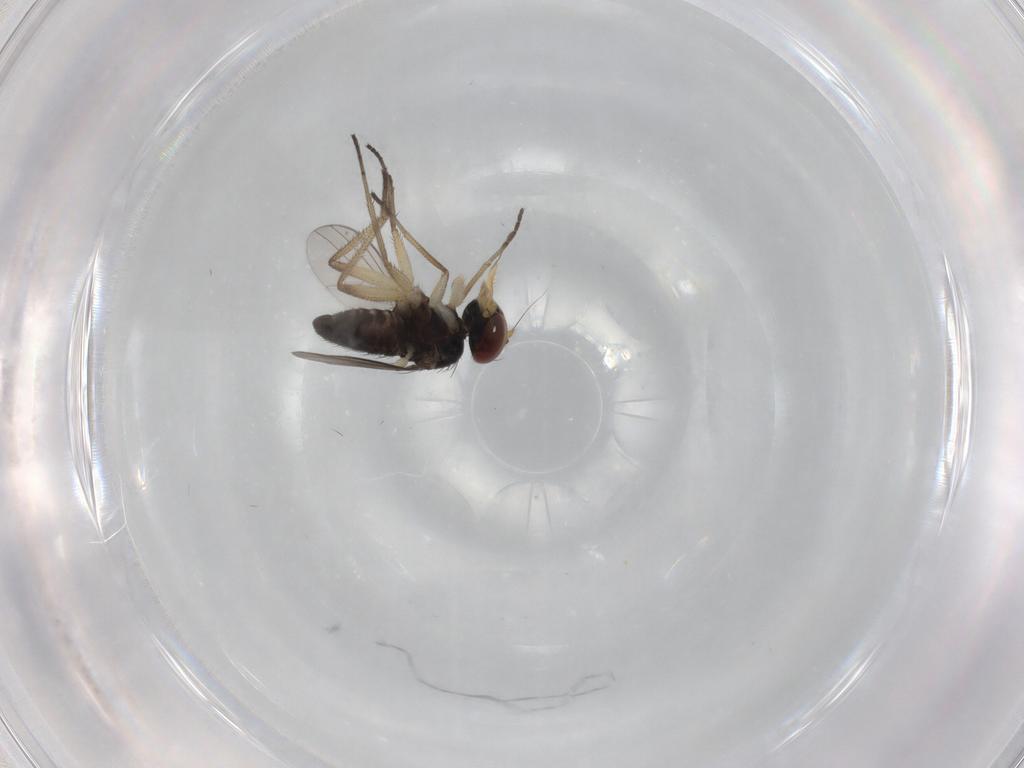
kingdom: Animalia
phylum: Arthropoda
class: Insecta
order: Diptera
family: Dolichopodidae
